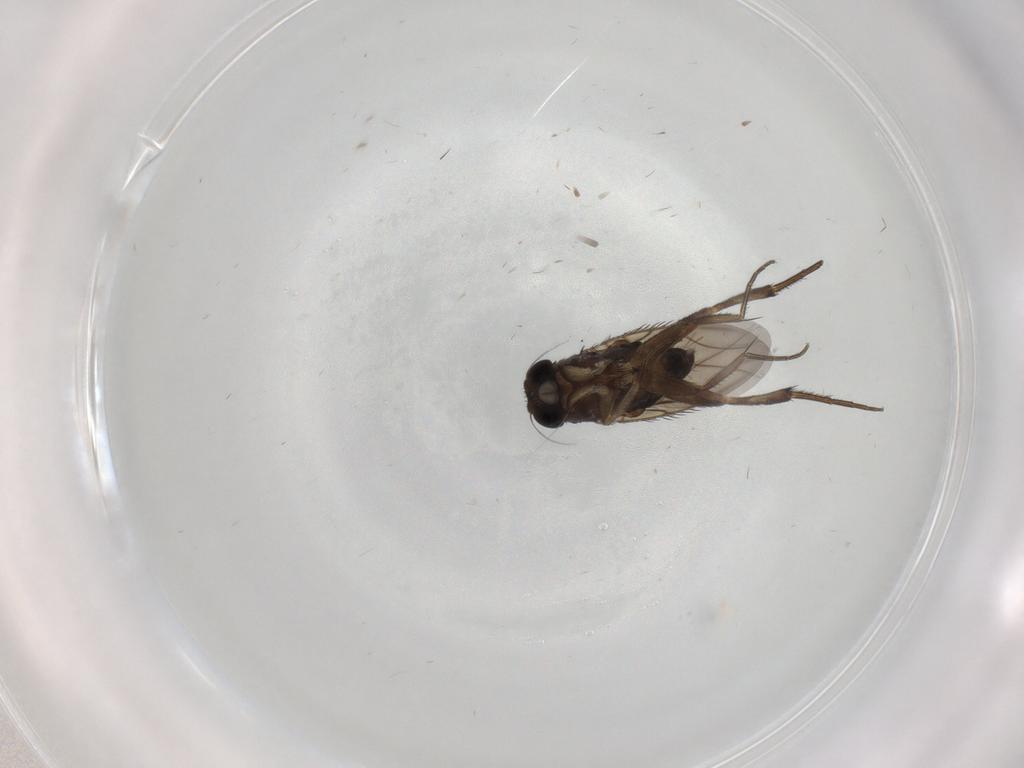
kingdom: Animalia
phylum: Arthropoda
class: Insecta
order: Diptera
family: Phoridae
